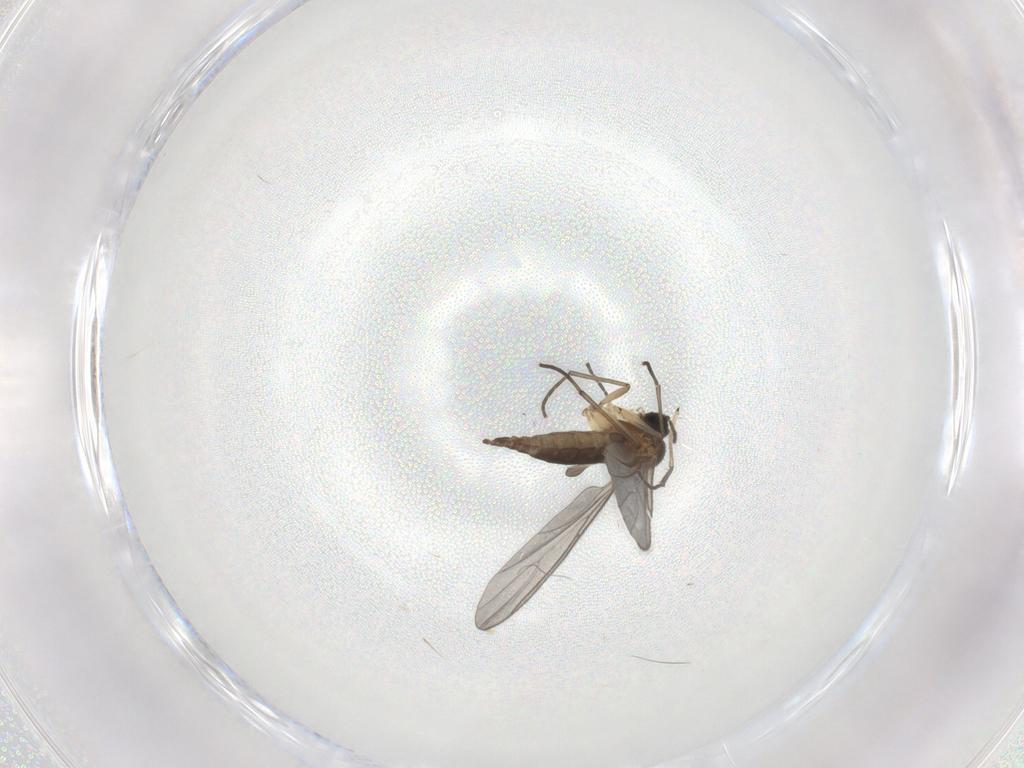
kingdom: Animalia
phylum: Arthropoda
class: Insecta
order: Diptera
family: Sciaridae
